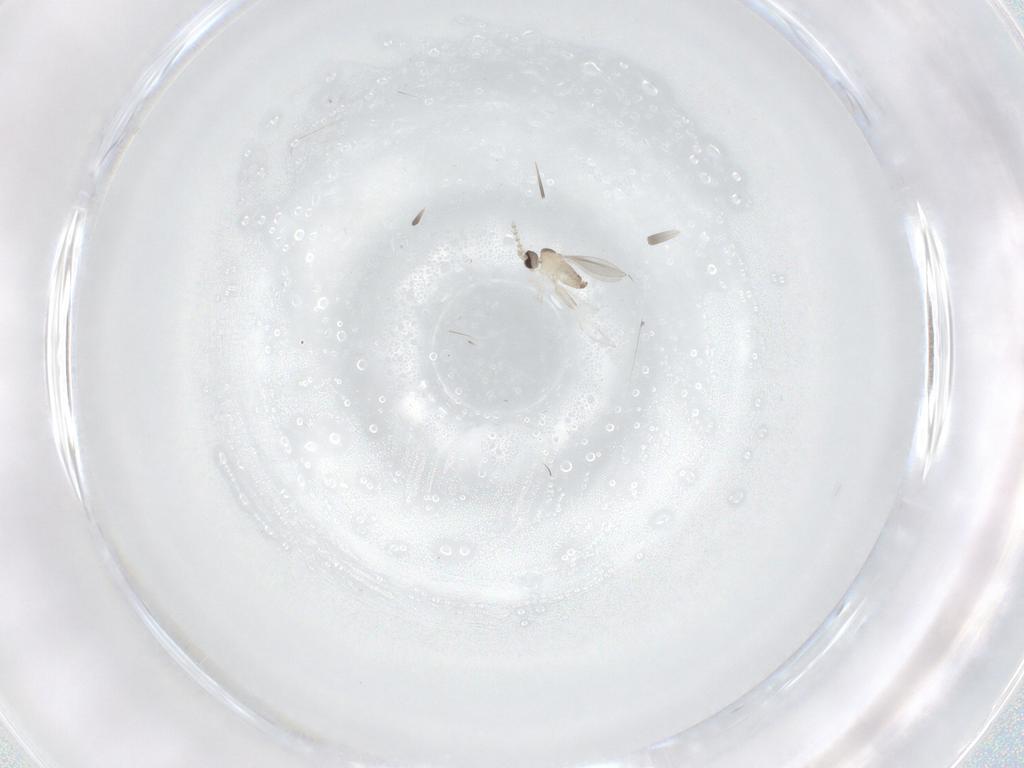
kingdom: Animalia
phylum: Arthropoda
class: Insecta
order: Diptera
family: Cecidomyiidae
